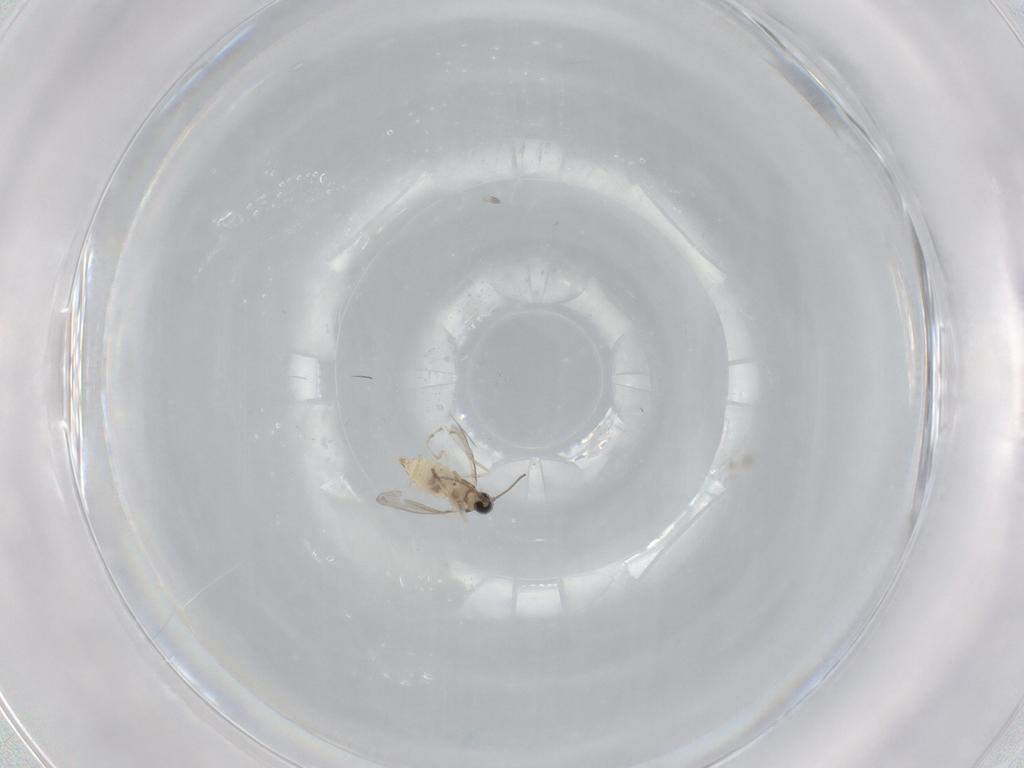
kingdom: Animalia
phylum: Arthropoda
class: Insecta
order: Diptera
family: Cecidomyiidae
